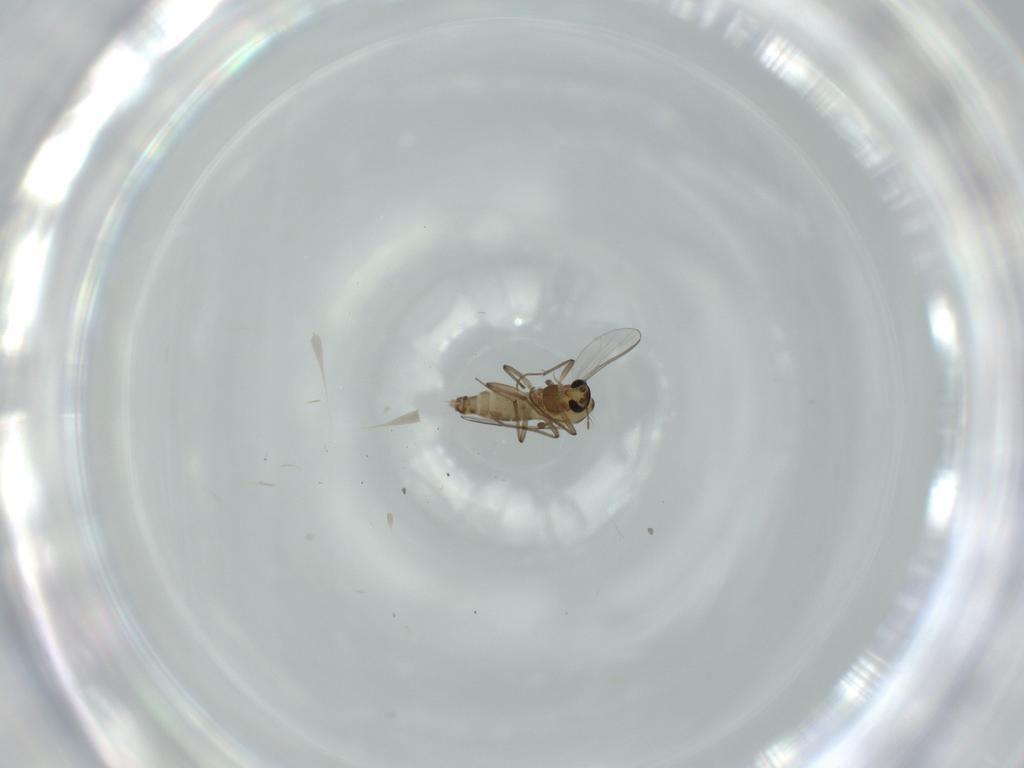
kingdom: Animalia
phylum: Arthropoda
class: Insecta
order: Diptera
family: Chironomidae
